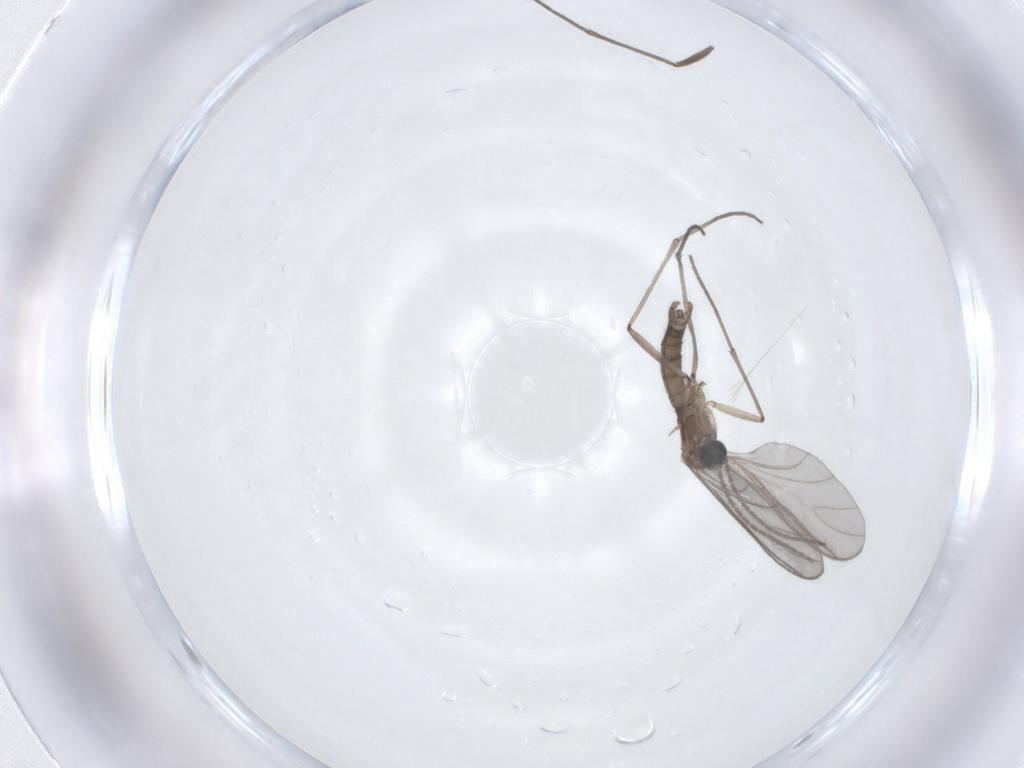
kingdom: Animalia
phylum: Arthropoda
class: Insecta
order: Diptera
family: Sciaridae
